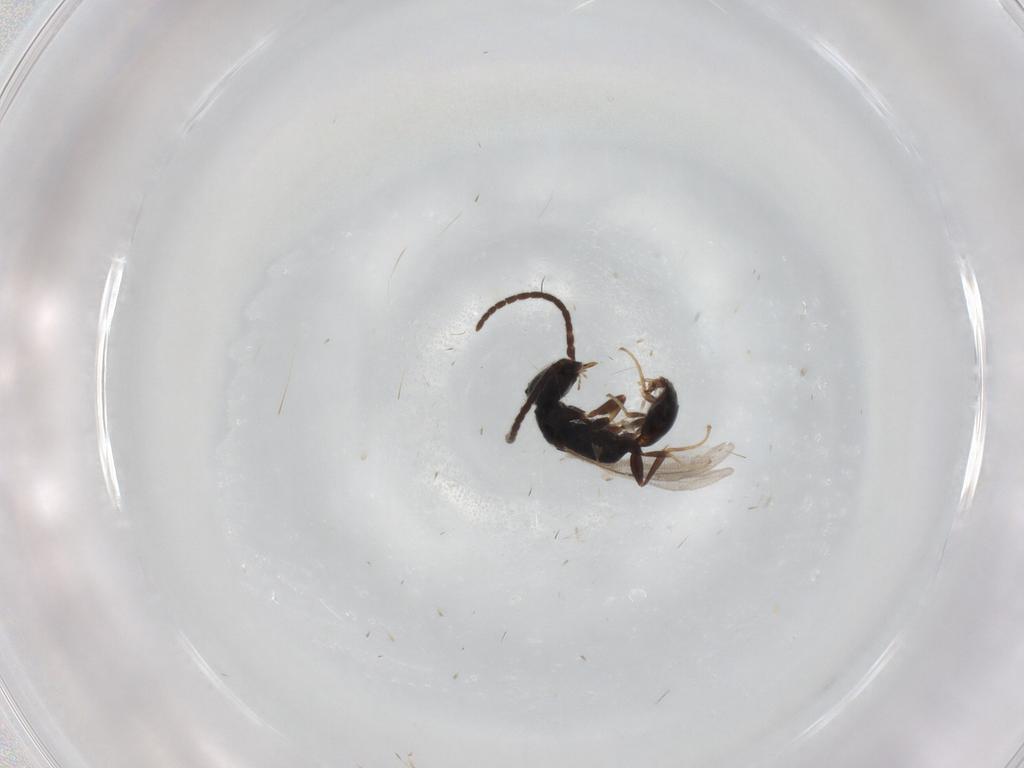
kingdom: Animalia
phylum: Arthropoda
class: Insecta
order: Hymenoptera
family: Bethylidae
